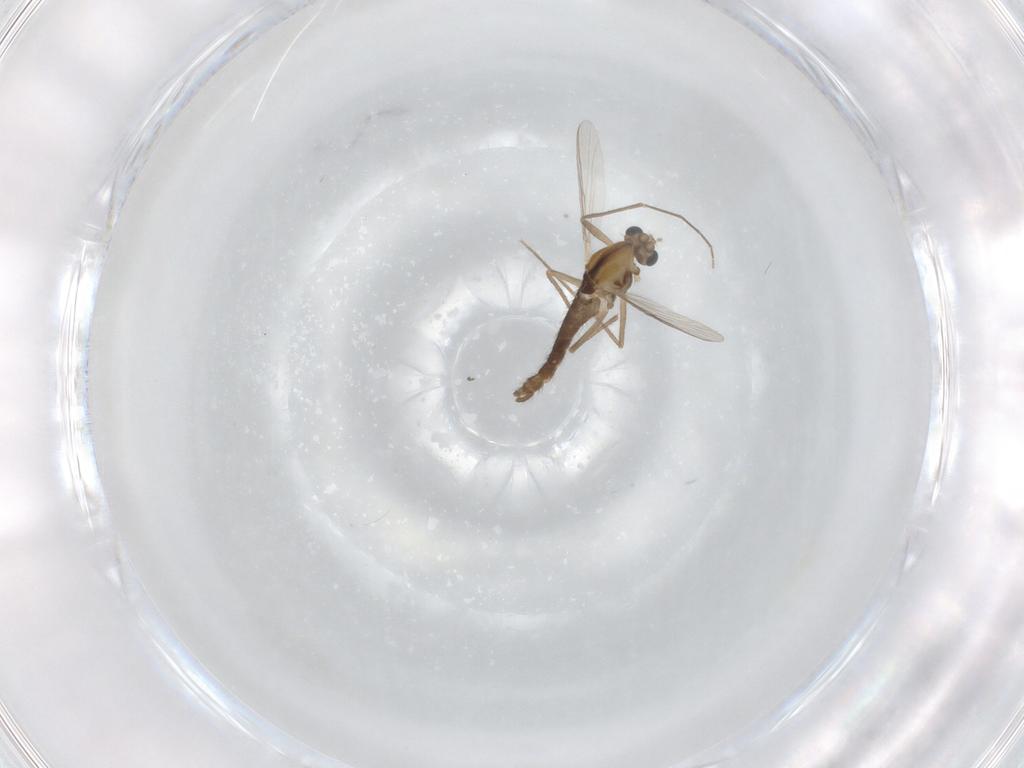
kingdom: Animalia
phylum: Arthropoda
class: Insecta
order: Diptera
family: Chironomidae
